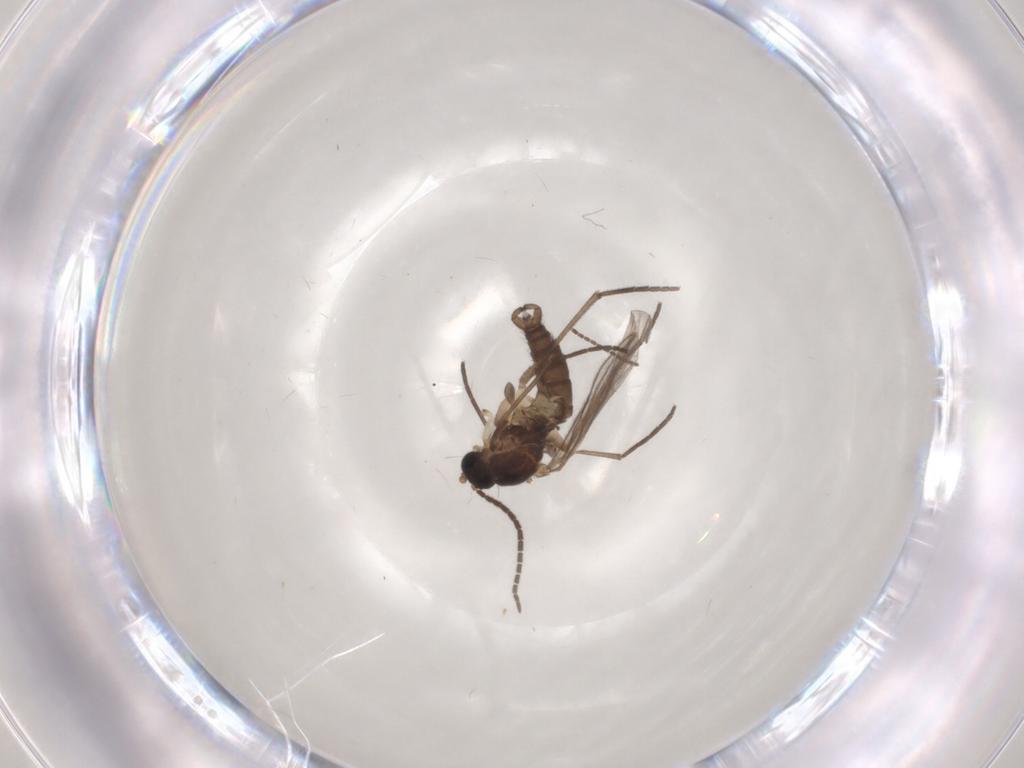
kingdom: Animalia
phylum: Arthropoda
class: Insecta
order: Diptera
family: Sciaridae
